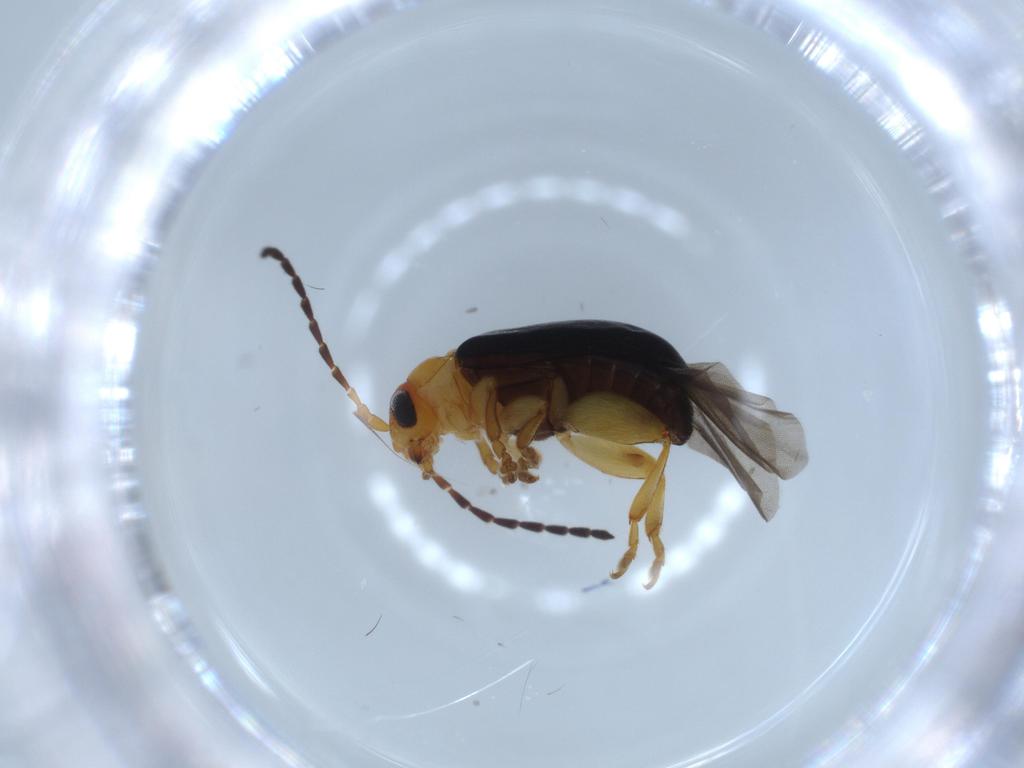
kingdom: Animalia
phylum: Arthropoda
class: Insecta
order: Coleoptera
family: Chrysomelidae
